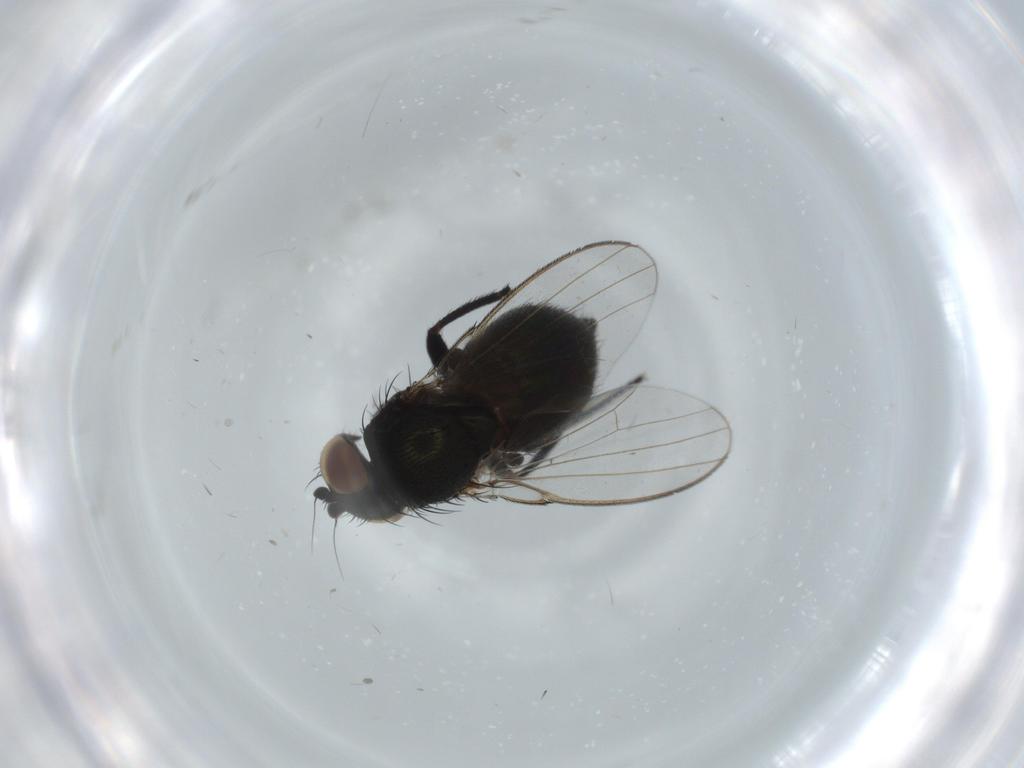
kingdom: Animalia
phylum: Arthropoda
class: Insecta
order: Diptera
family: Milichiidae
